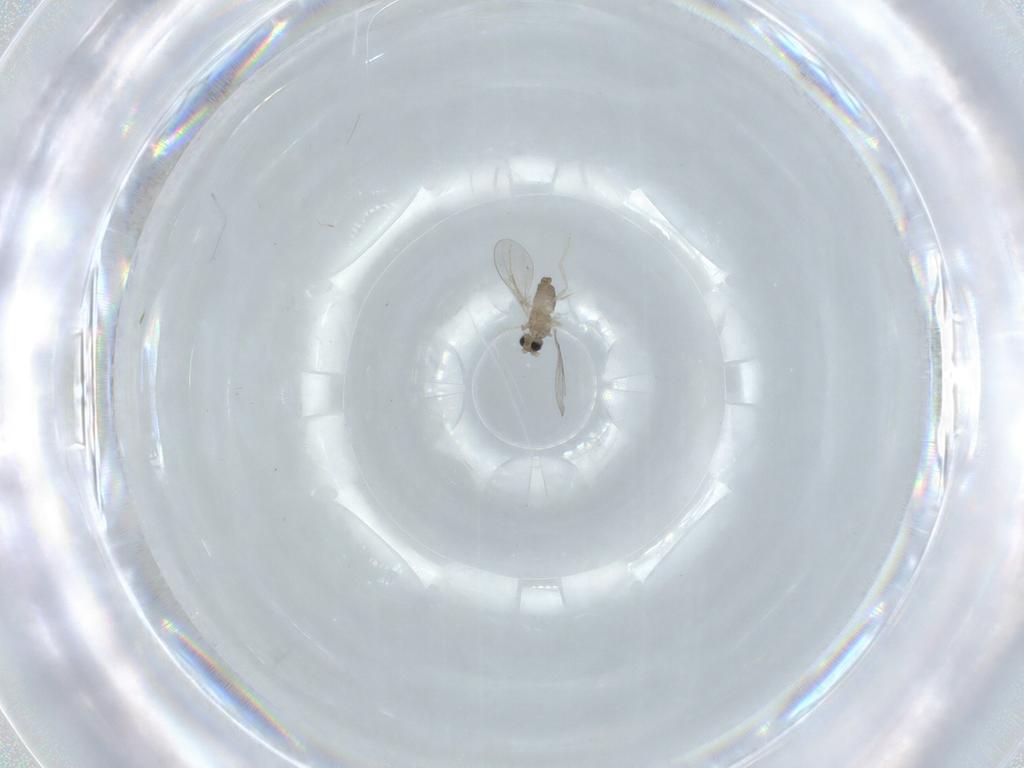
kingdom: Animalia
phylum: Arthropoda
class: Insecta
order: Diptera
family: Cecidomyiidae
